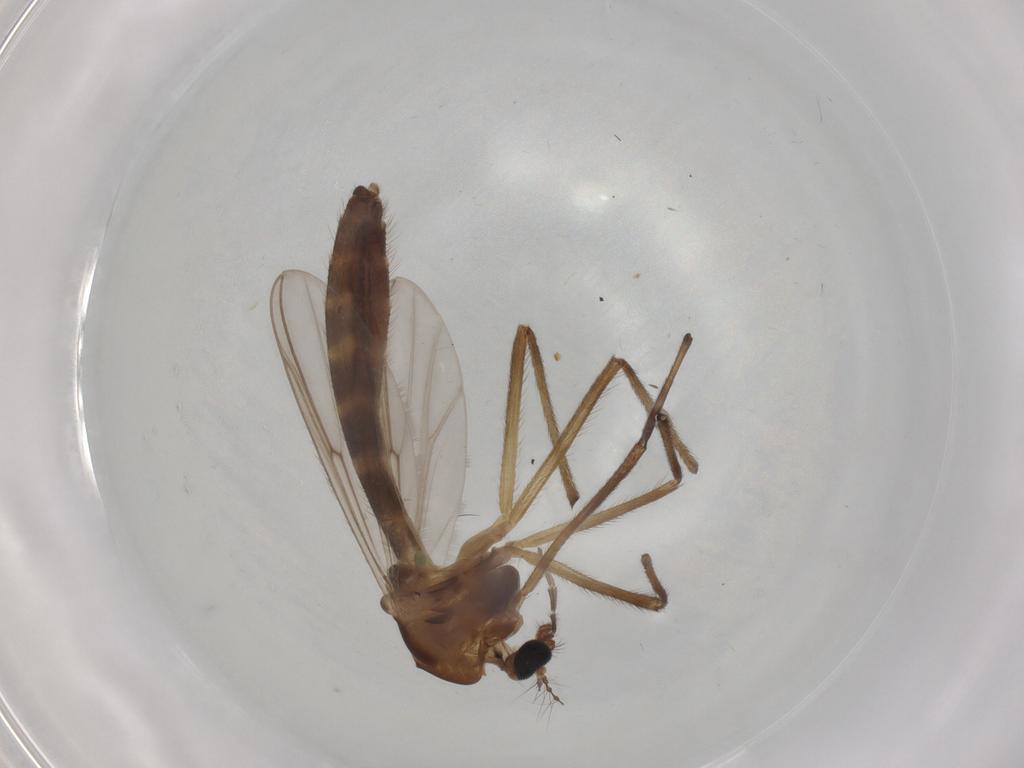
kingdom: Animalia
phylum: Arthropoda
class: Insecta
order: Diptera
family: Chironomidae
